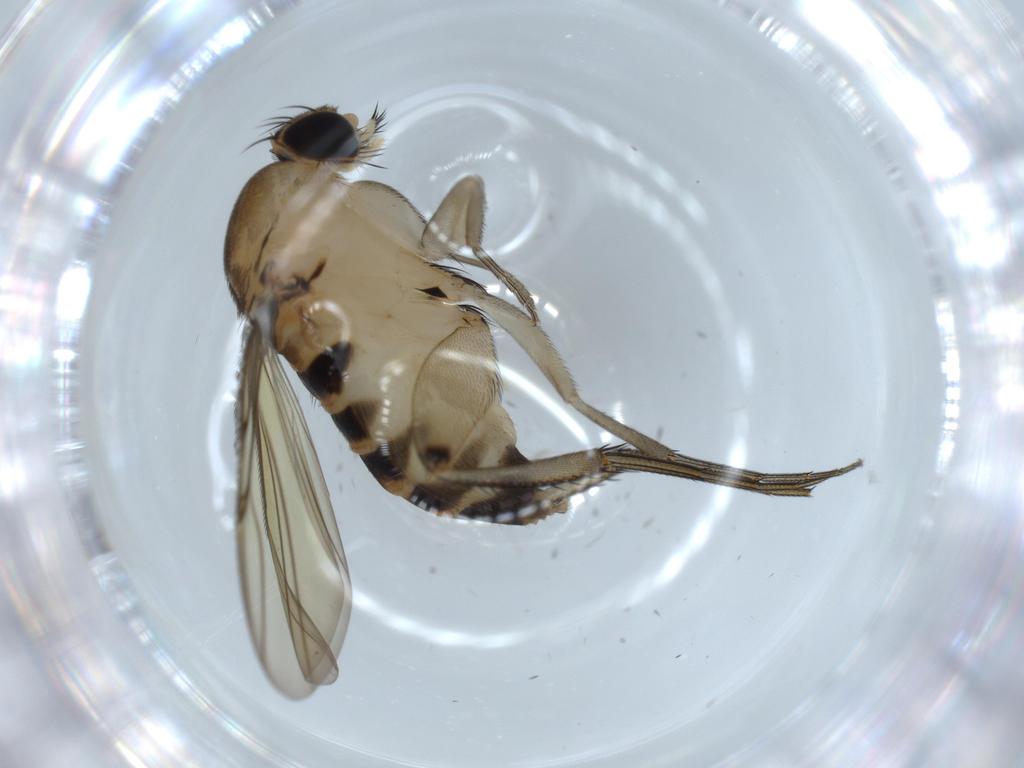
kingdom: Animalia
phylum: Arthropoda
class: Insecta
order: Diptera
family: Phoridae
